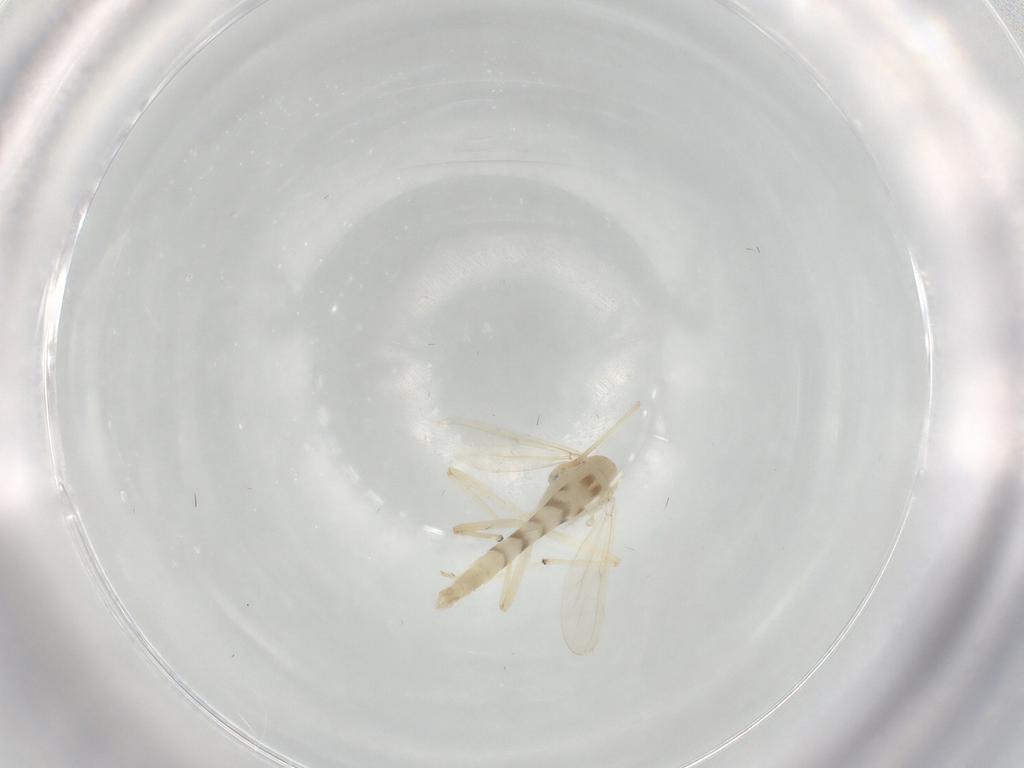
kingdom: Animalia
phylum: Arthropoda
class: Insecta
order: Diptera
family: Chironomidae
